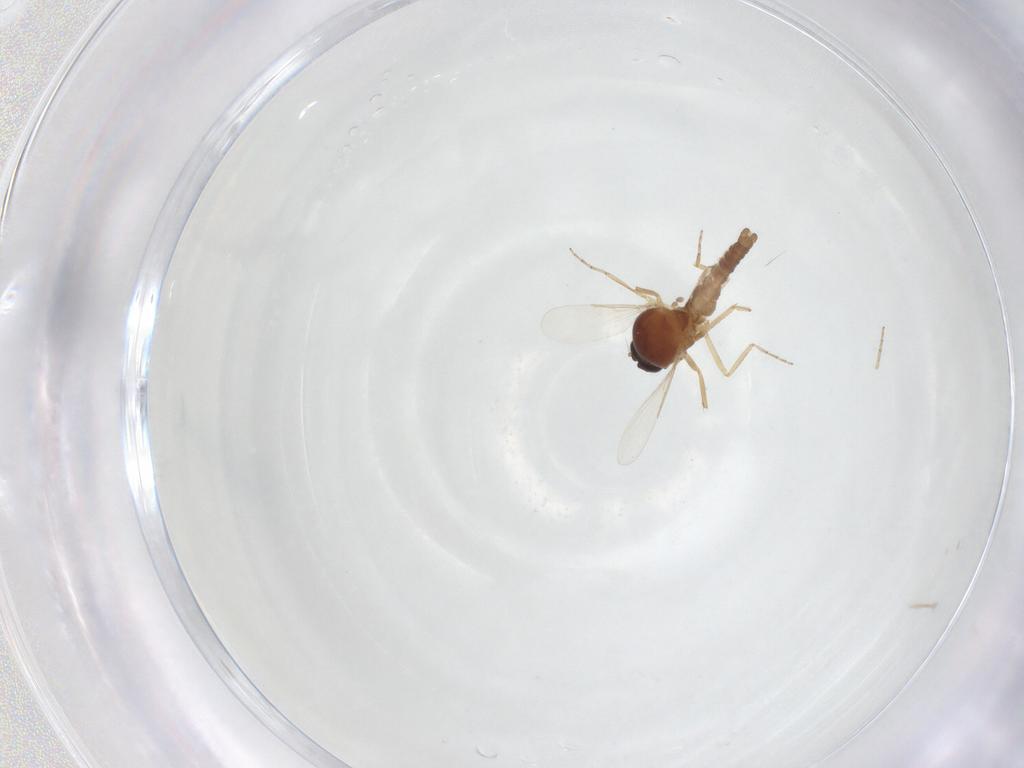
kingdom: Animalia
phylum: Arthropoda
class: Insecta
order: Diptera
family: Ceratopogonidae
